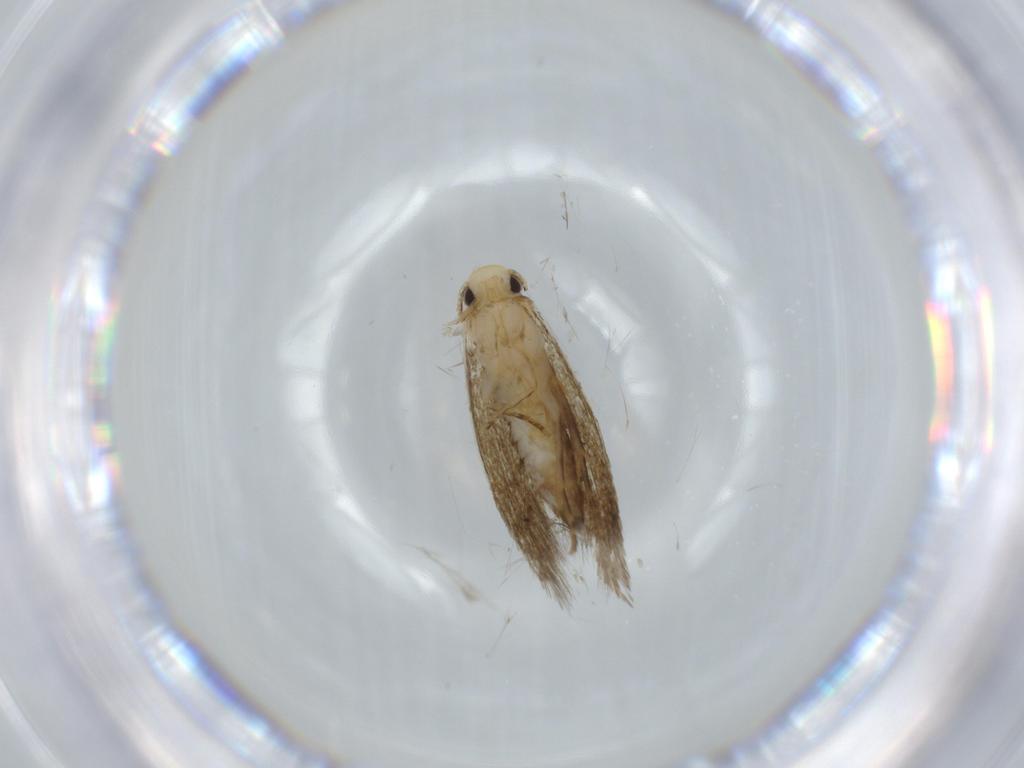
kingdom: Animalia
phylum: Arthropoda
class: Insecta
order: Lepidoptera
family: Tineidae
